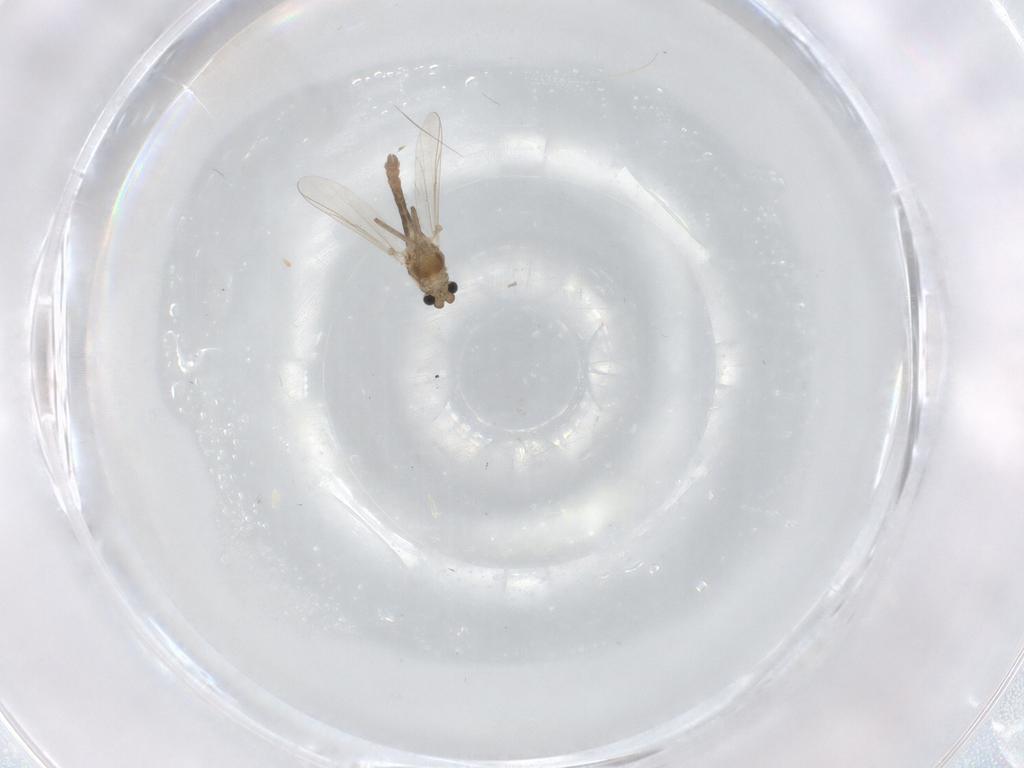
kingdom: Animalia
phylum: Arthropoda
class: Insecta
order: Diptera
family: Chironomidae
